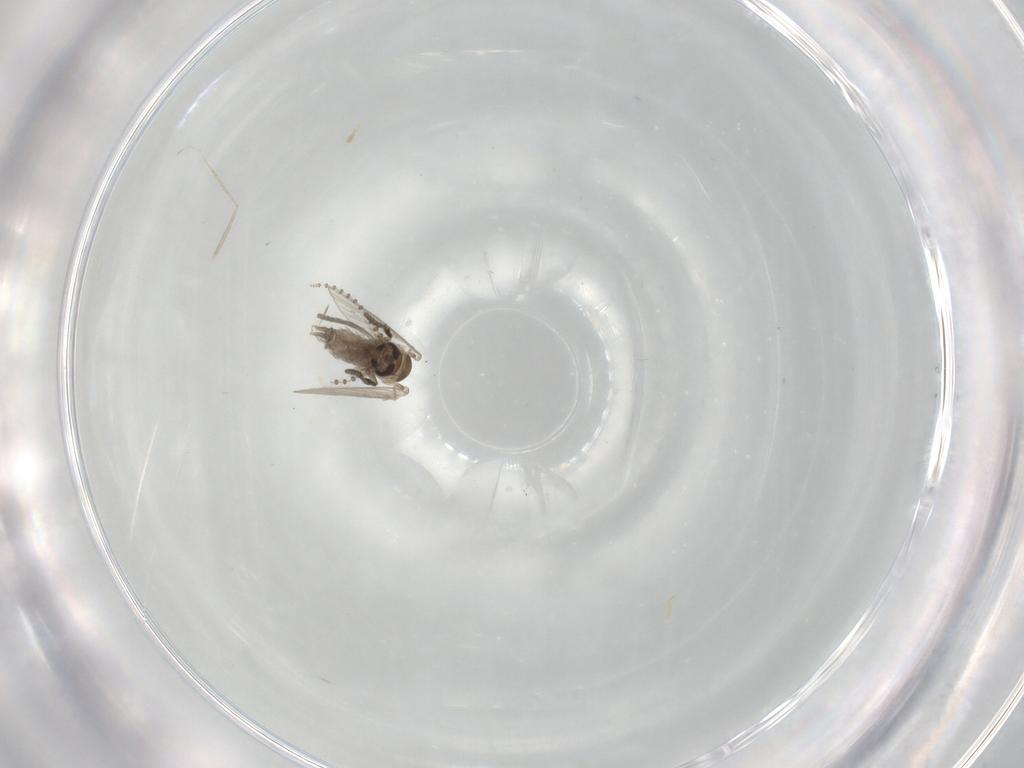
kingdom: Animalia
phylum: Arthropoda
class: Insecta
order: Diptera
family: Psychodidae
